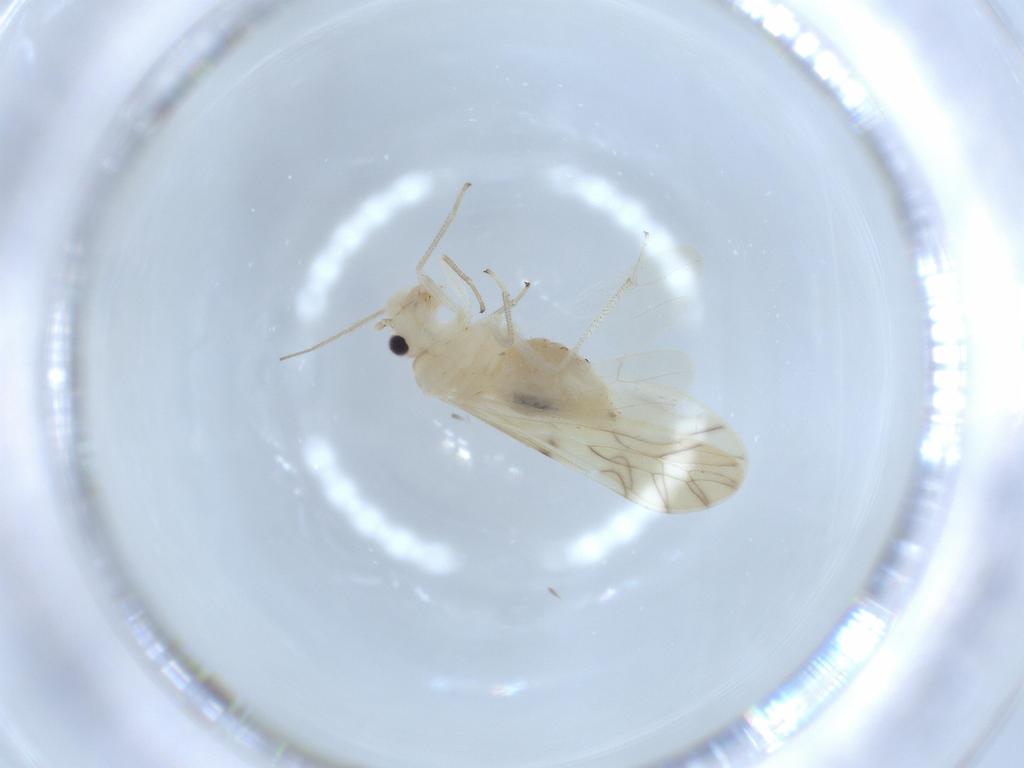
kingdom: Animalia
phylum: Arthropoda
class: Insecta
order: Psocodea
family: Caeciliusidae
